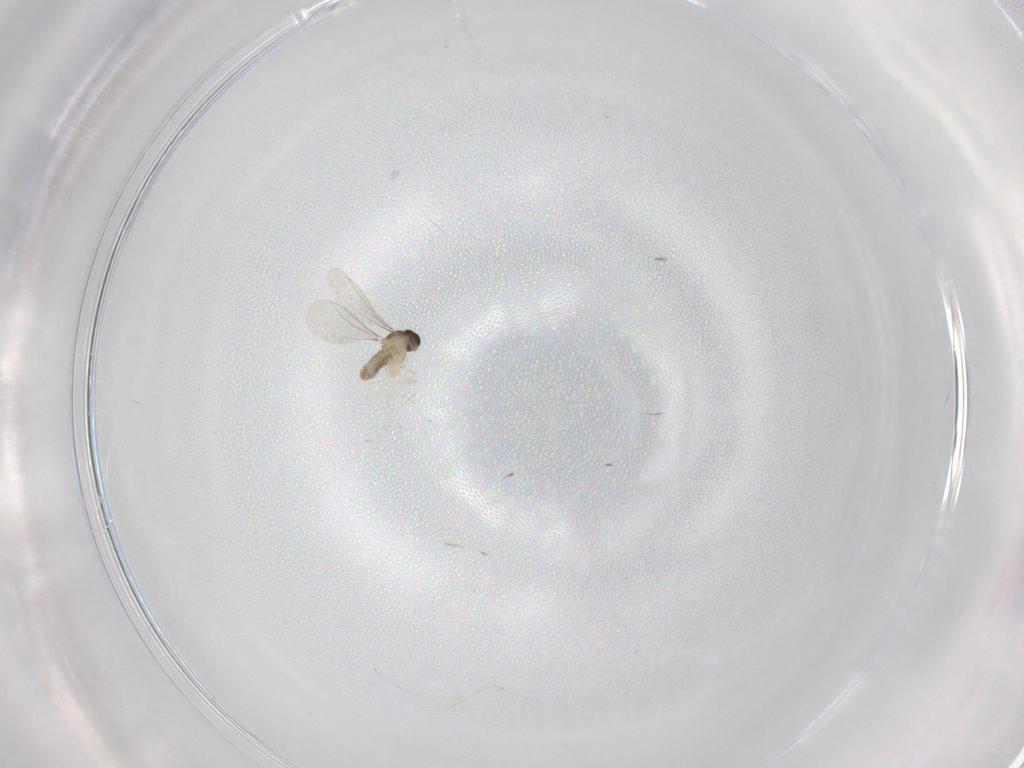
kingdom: Animalia
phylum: Arthropoda
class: Insecta
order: Diptera
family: Cecidomyiidae
